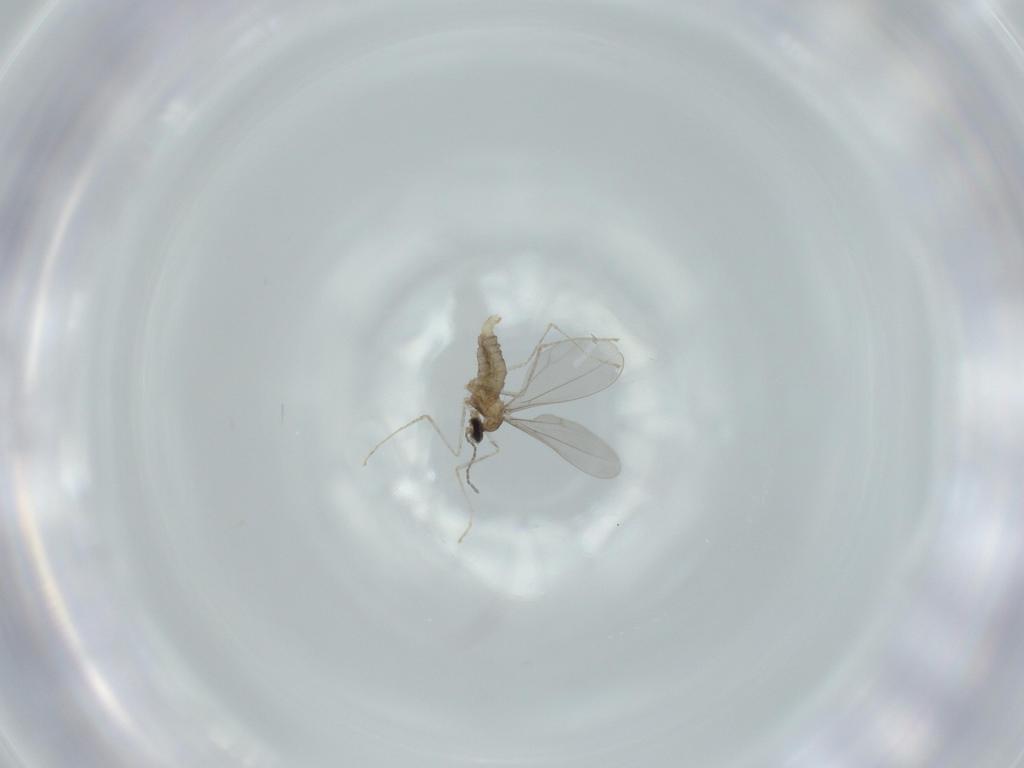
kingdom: Animalia
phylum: Arthropoda
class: Insecta
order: Diptera
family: Cecidomyiidae
